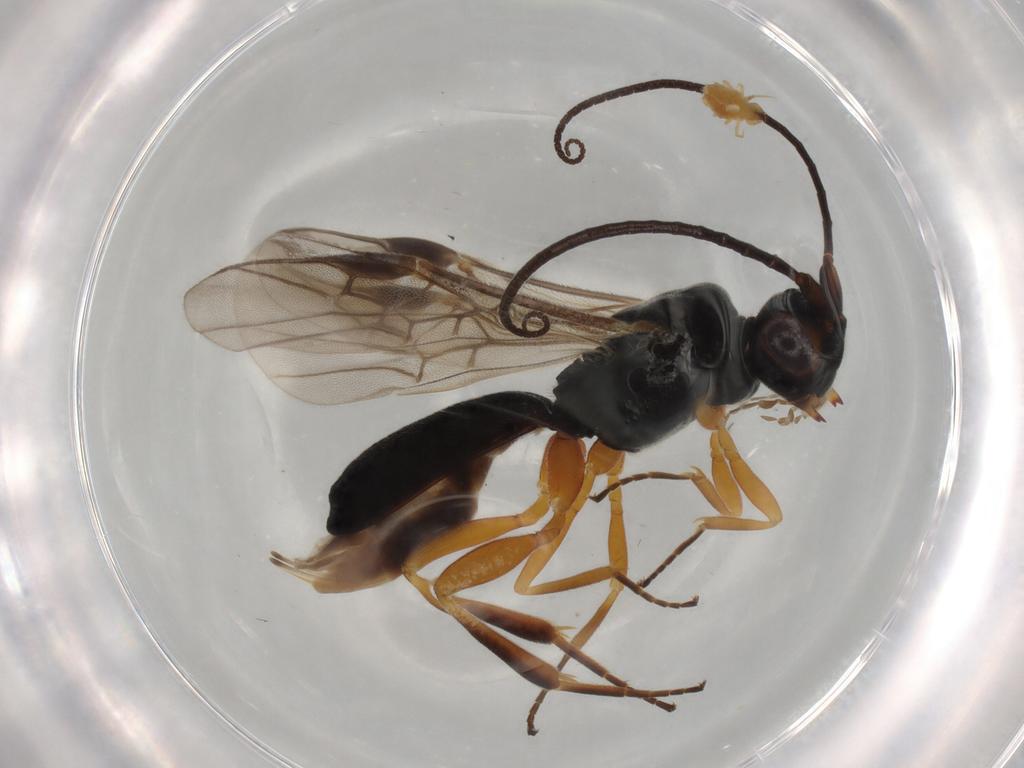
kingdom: Animalia
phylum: Arthropoda
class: Insecta
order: Hymenoptera
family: Braconidae
